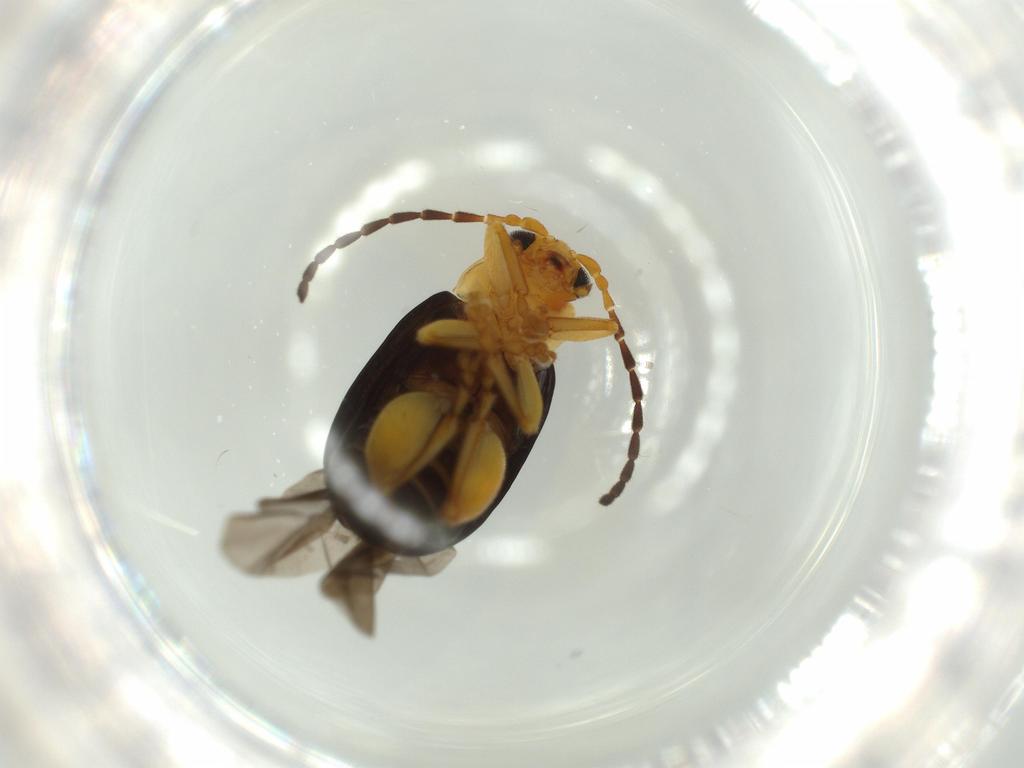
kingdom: Animalia
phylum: Arthropoda
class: Insecta
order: Coleoptera
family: Chrysomelidae
